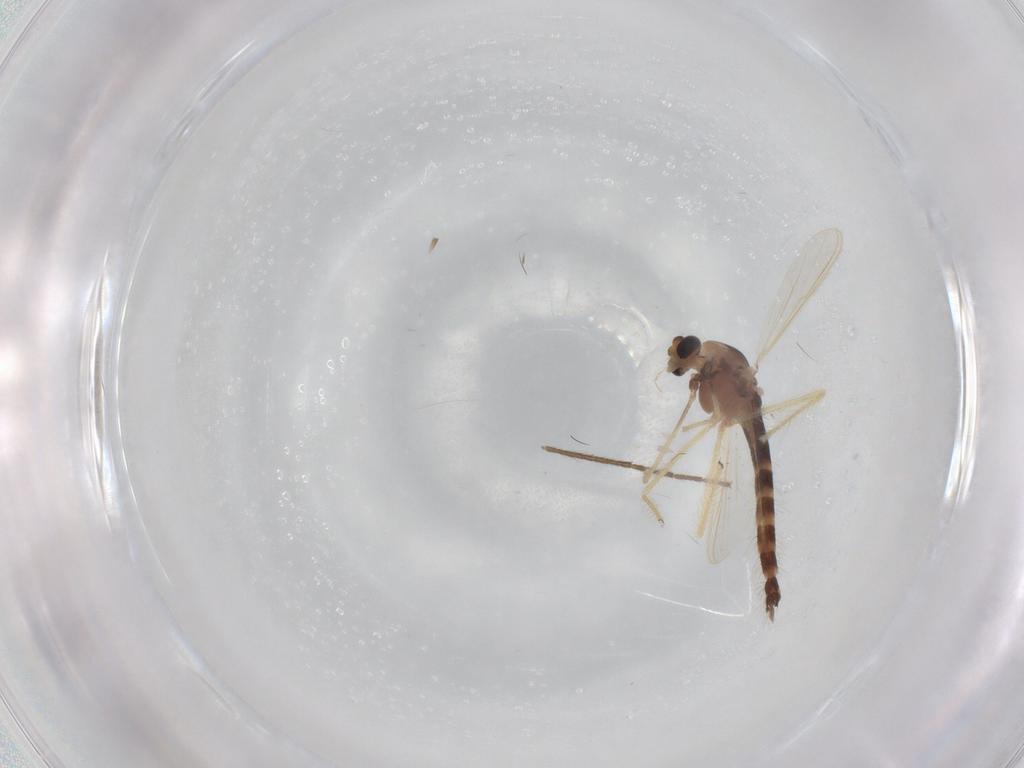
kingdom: Animalia
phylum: Arthropoda
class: Insecta
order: Diptera
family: Chironomidae
